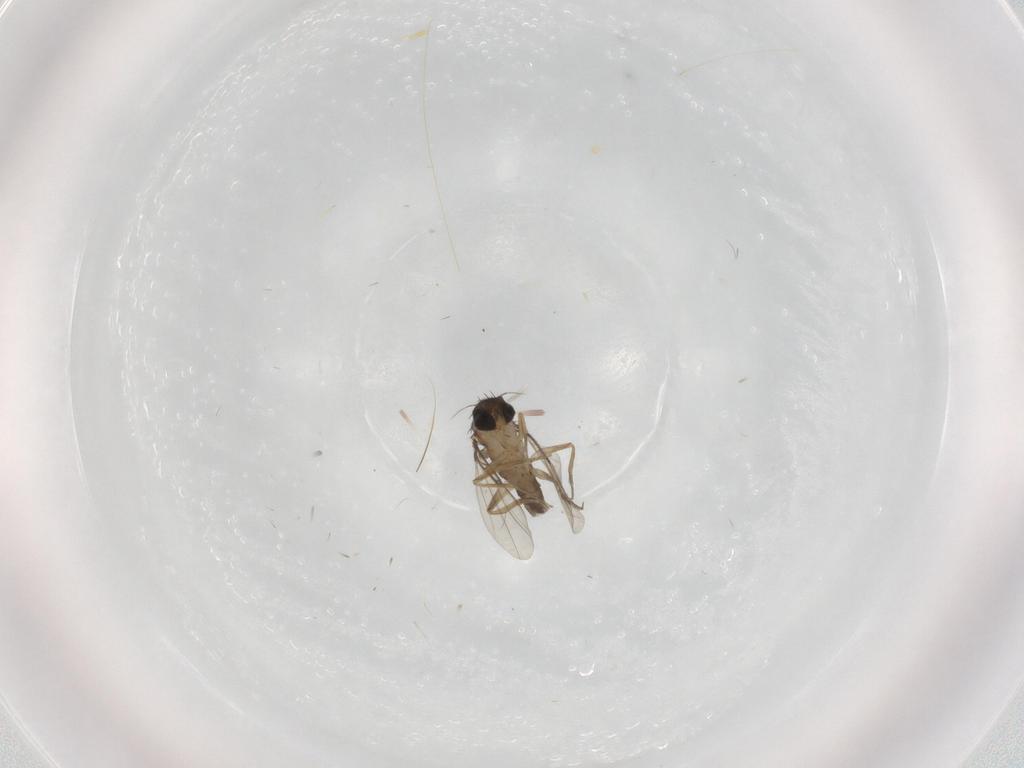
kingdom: Animalia
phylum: Arthropoda
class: Insecta
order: Diptera
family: Phoridae
